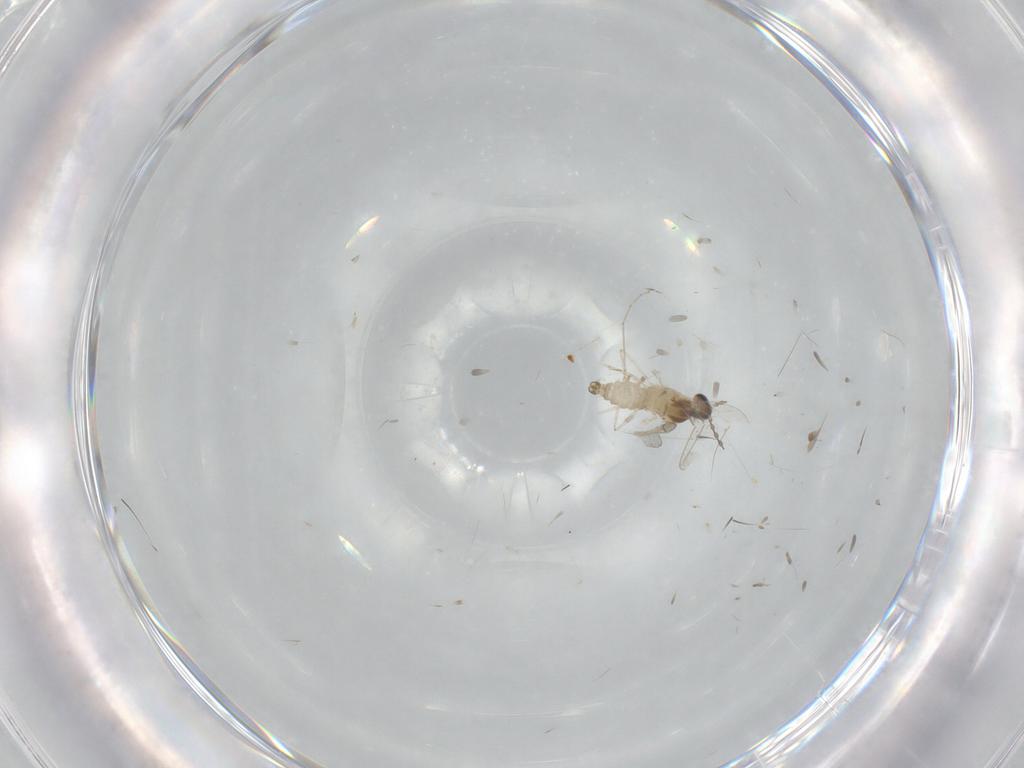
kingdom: Animalia
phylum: Arthropoda
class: Insecta
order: Diptera
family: Cecidomyiidae
